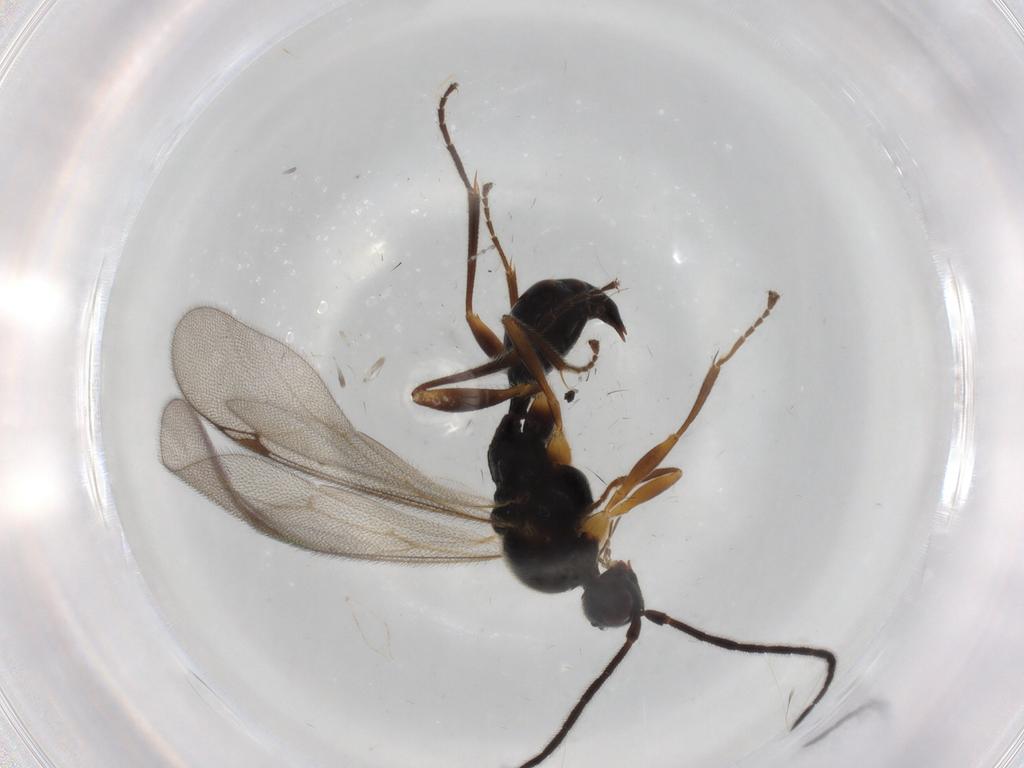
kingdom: Animalia
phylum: Arthropoda
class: Insecta
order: Hymenoptera
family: Proctotrupidae
